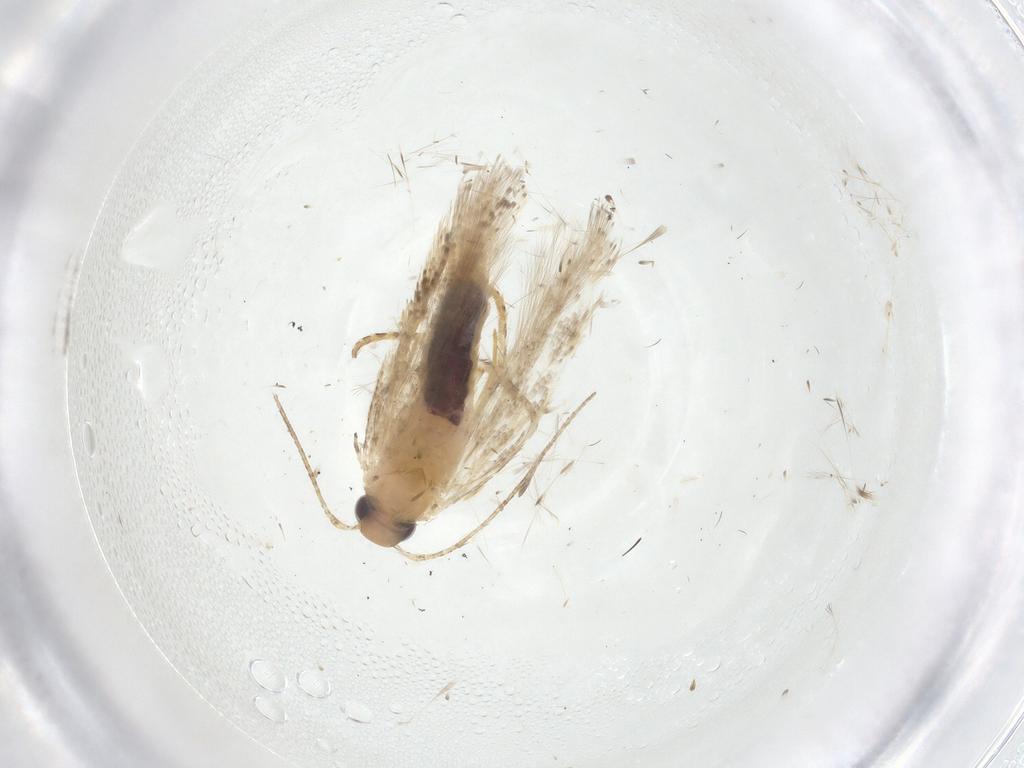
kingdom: Animalia
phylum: Arthropoda
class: Insecta
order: Lepidoptera
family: Gelechiidae
